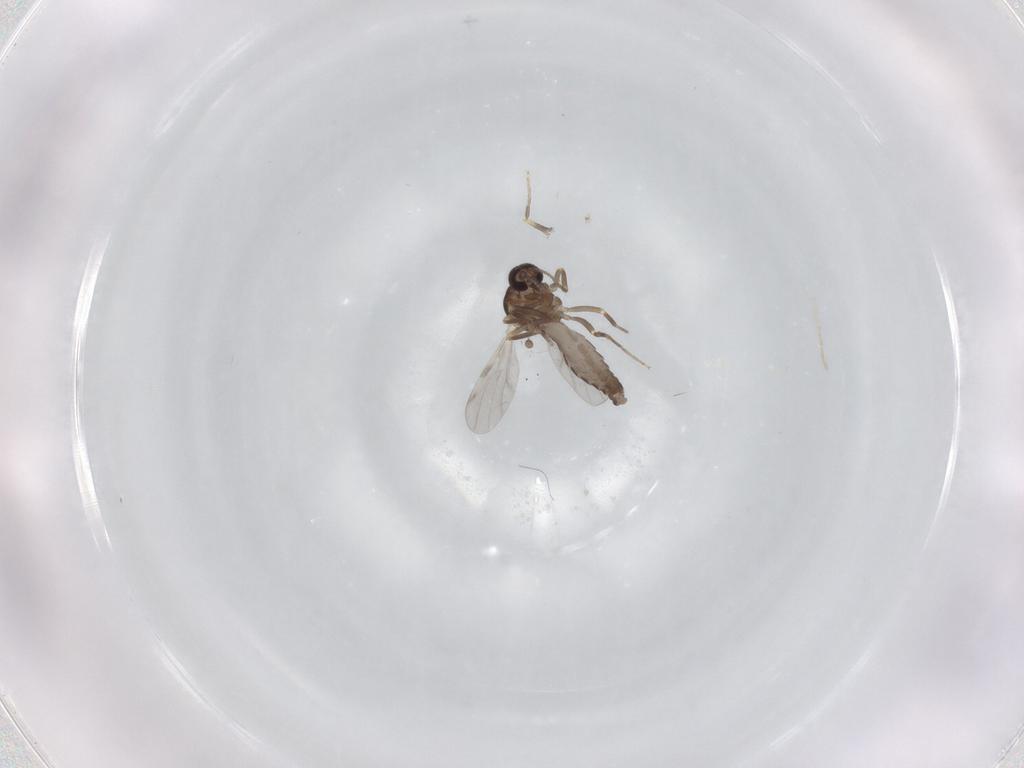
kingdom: Animalia
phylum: Arthropoda
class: Insecta
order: Diptera
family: Ceratopogonidae
